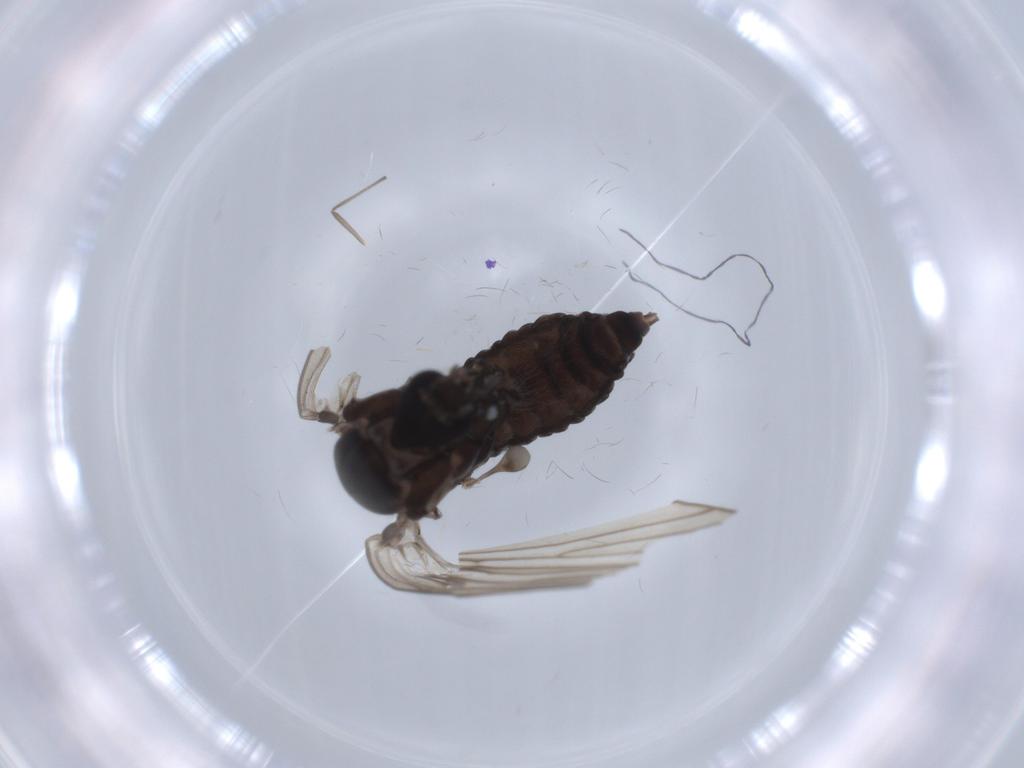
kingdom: Animalia
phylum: Arthropoda
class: Insecta
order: Diptera
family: Psychodidae
